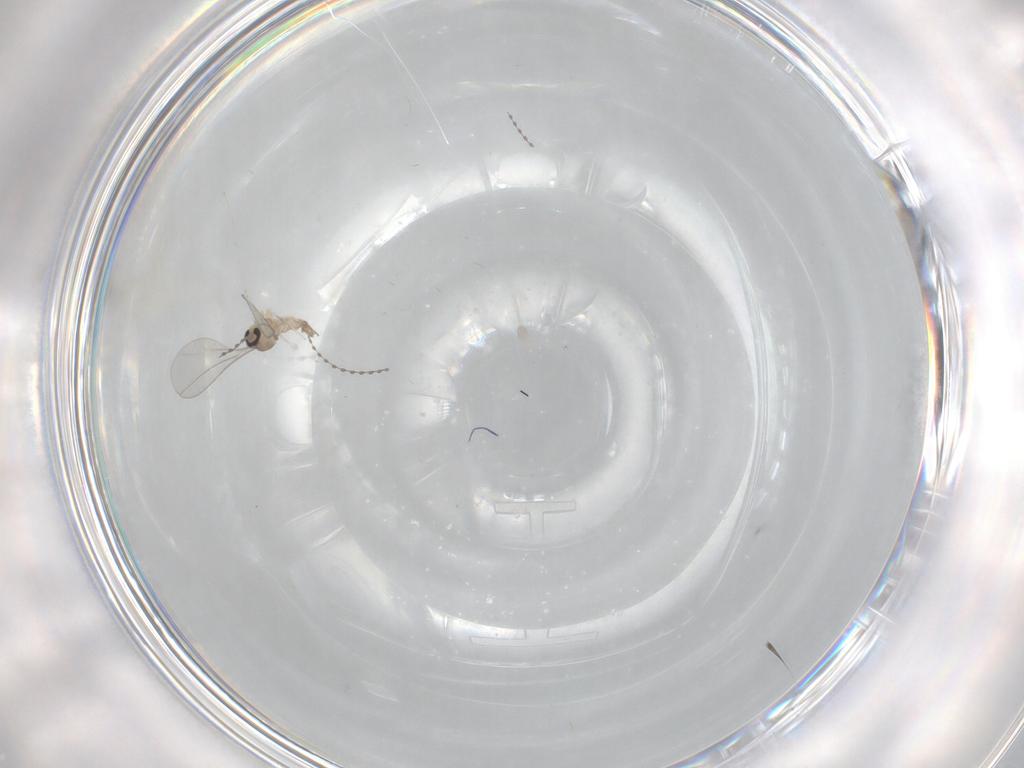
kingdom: Animalia
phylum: Arthropoda
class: Insecta
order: Diptera
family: Cecidomyiidae
